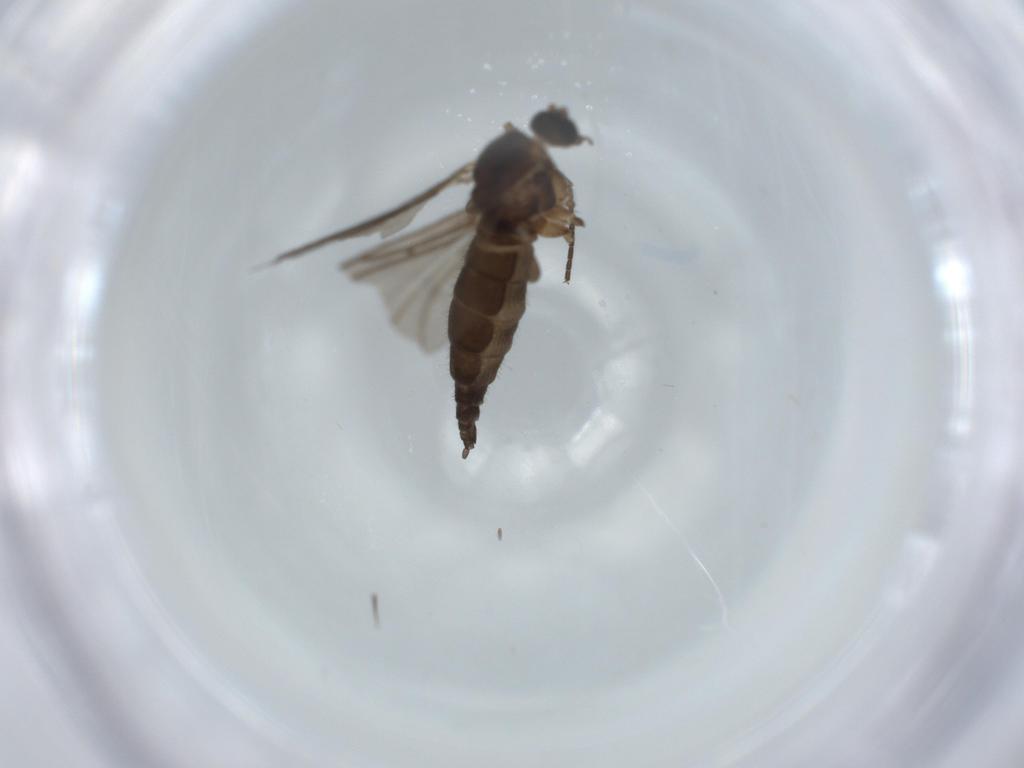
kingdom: Animalia
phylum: Arthropoda
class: Insecta
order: Diptera
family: Sciaridae
